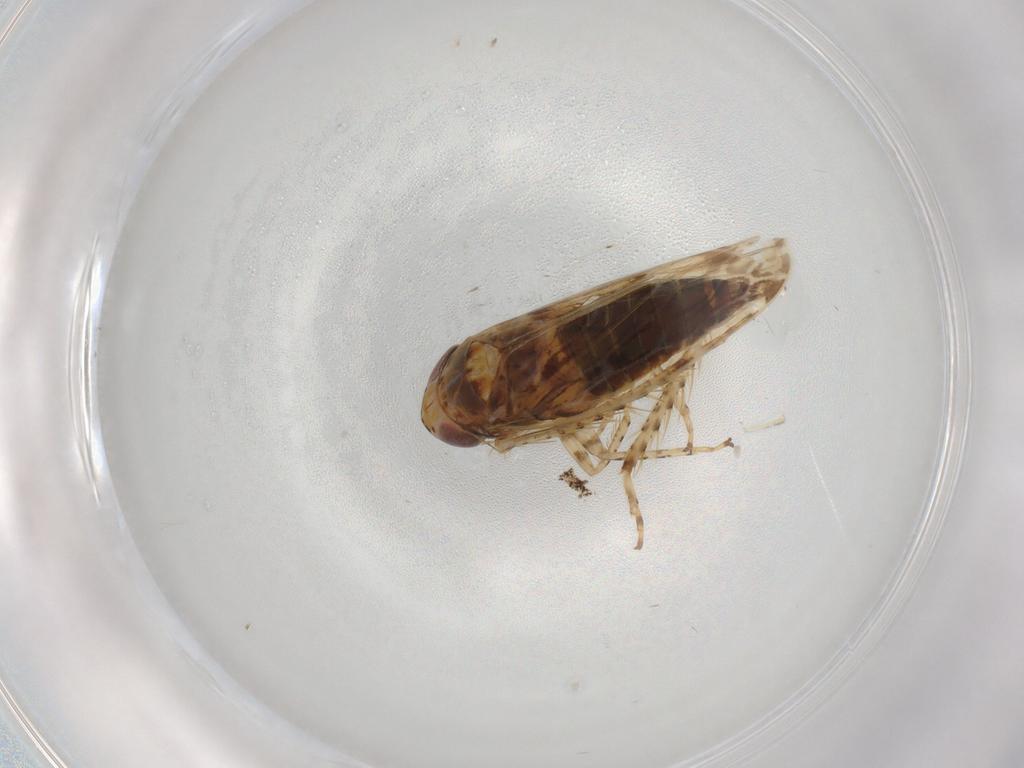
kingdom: Animalia
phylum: Arthropoda
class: Insecta
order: Hemiptera
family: Cicadellidae
